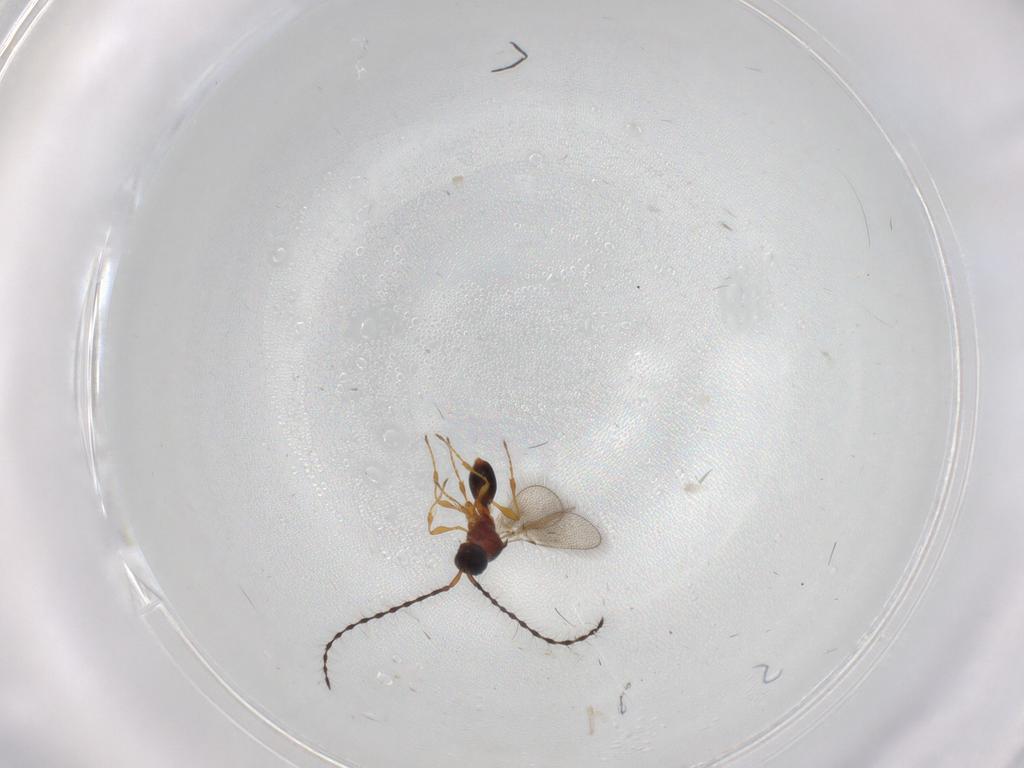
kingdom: Animalia
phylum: Arthropoda
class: Insecta
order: Hymenoptera
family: Diapriidae
